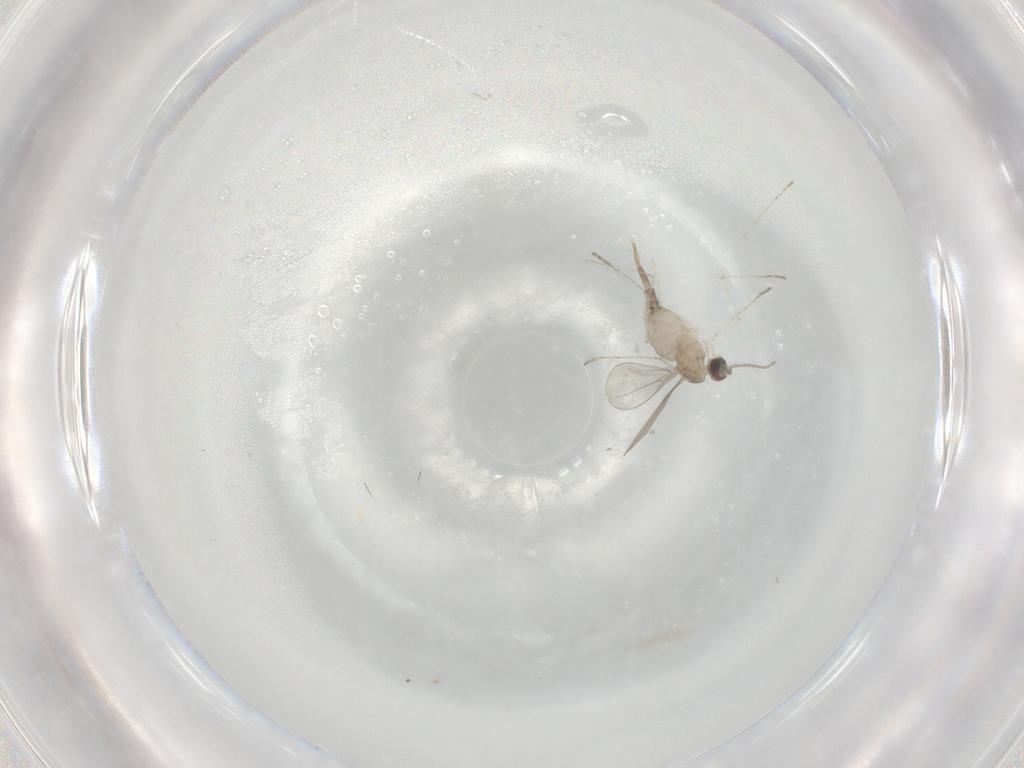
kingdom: Animalia
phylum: Arthropoda
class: Insecta
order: Diptera
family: Cecidomyiidae
